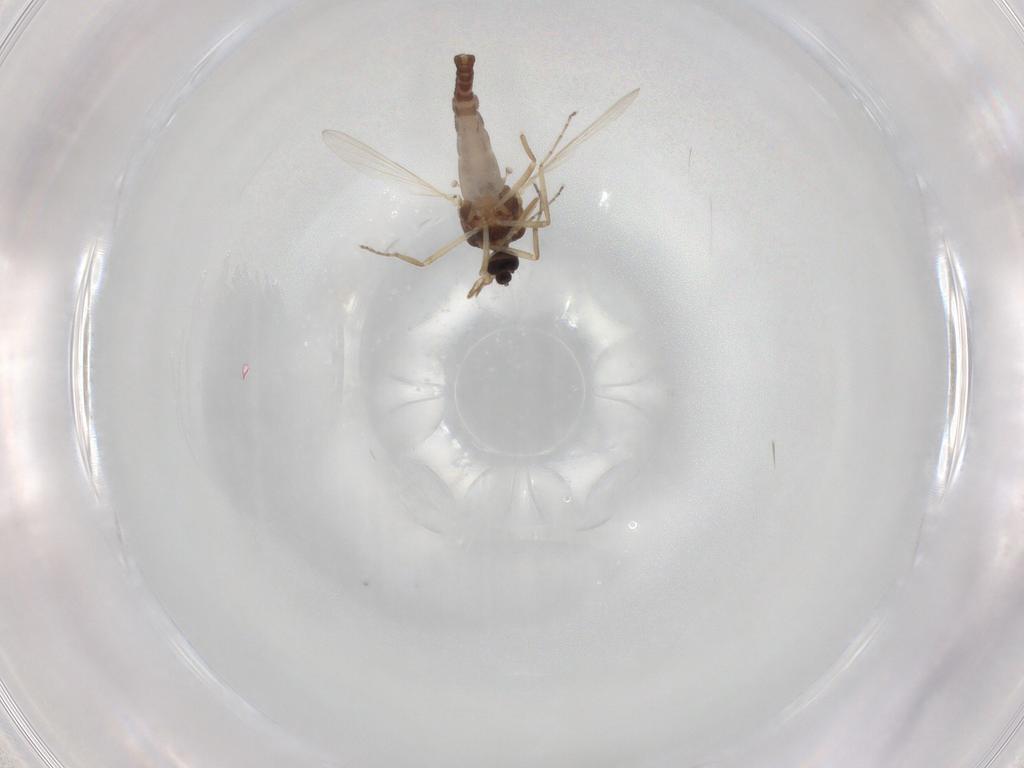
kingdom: Animalia
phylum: Arthropoda
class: Insecta
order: Diptera
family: Ceratopogonidae
